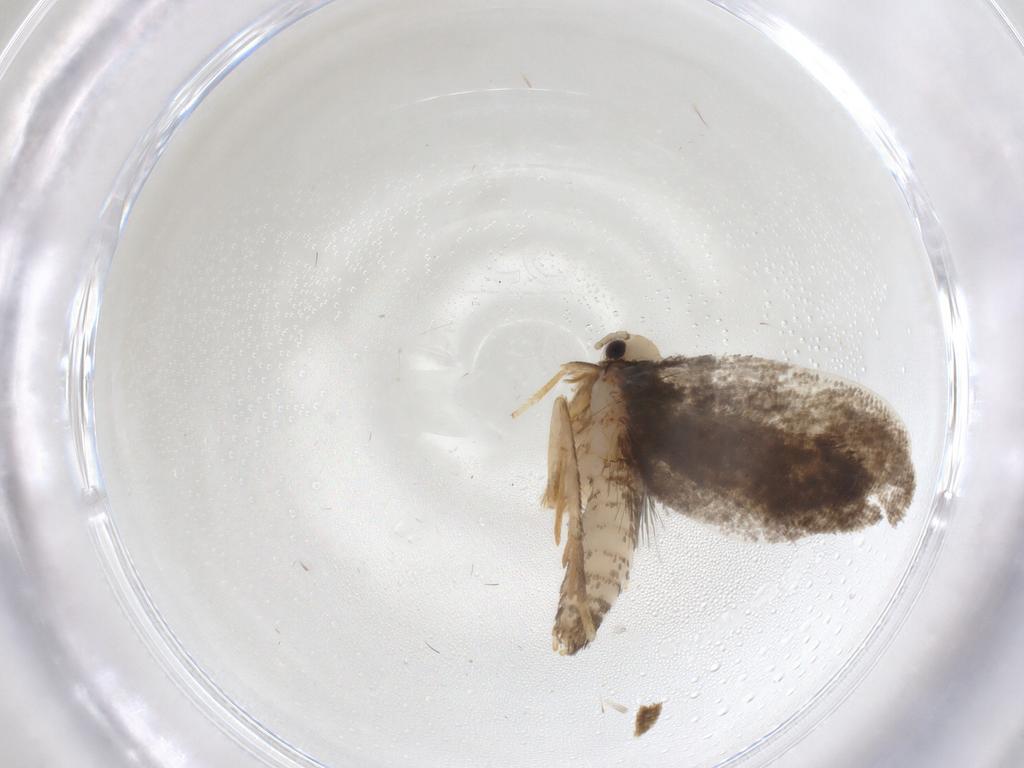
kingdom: Animalia
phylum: Arthropoda
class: Insecta
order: Lepidoptera
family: Psychidae
